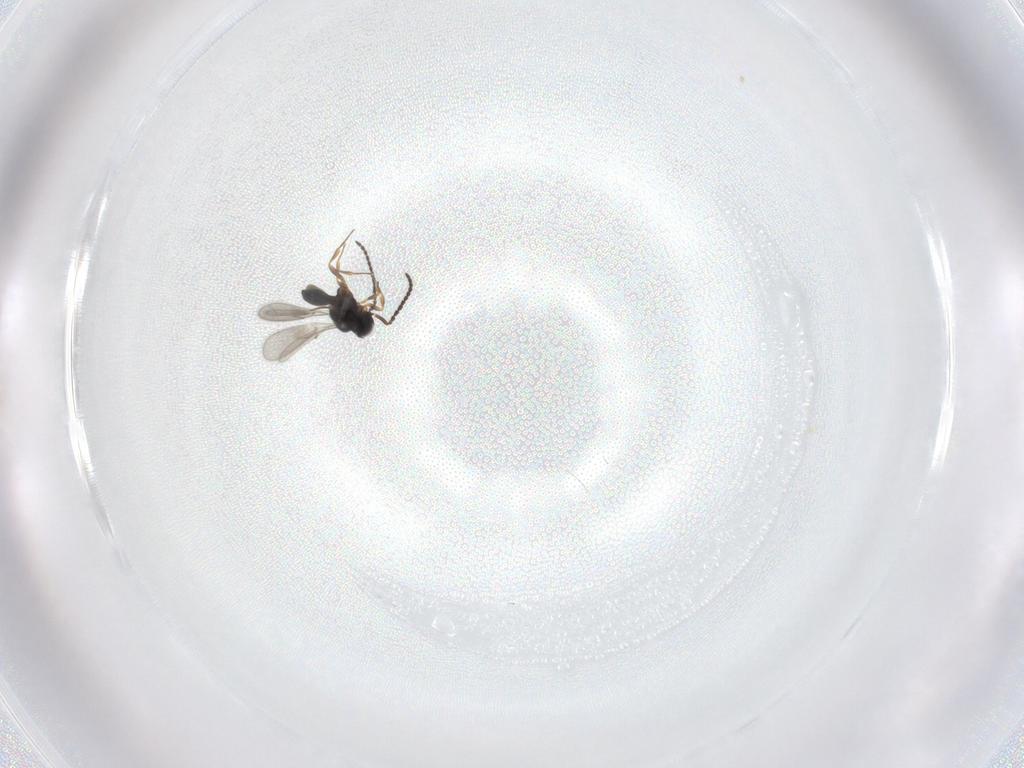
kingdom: Animalia
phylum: Arthropoda
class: Insecta
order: Hymenoptera
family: Scelionidae
